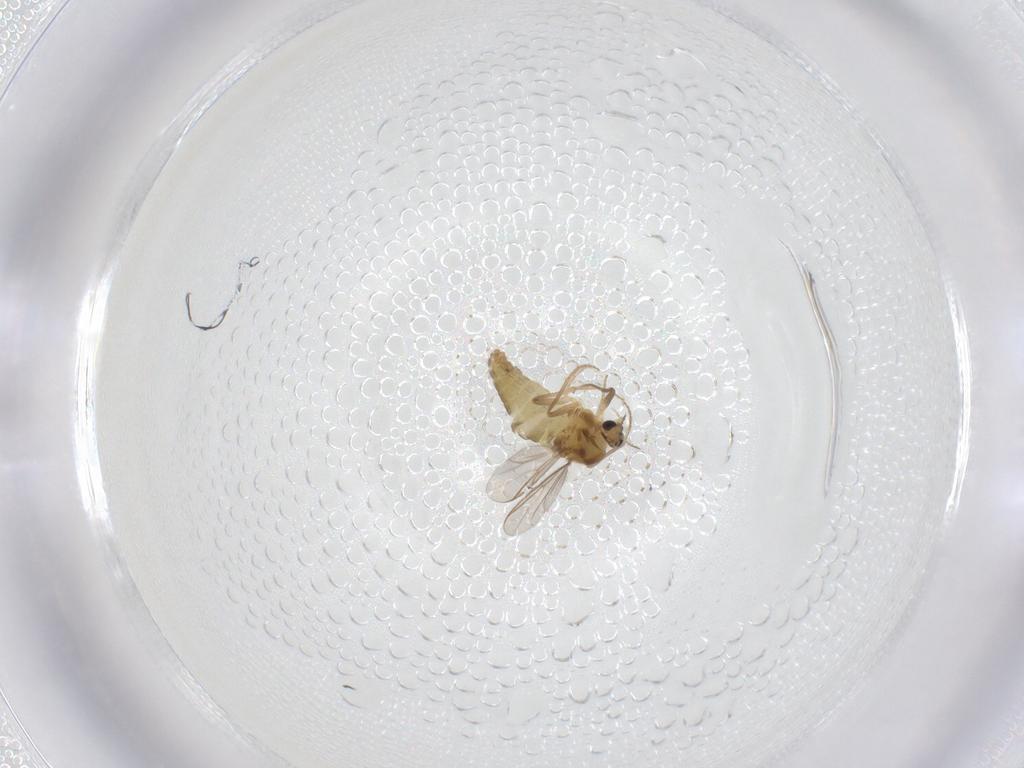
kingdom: Animalia
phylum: Arthropoda
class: Insecta
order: Diptera
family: Chironomidae
